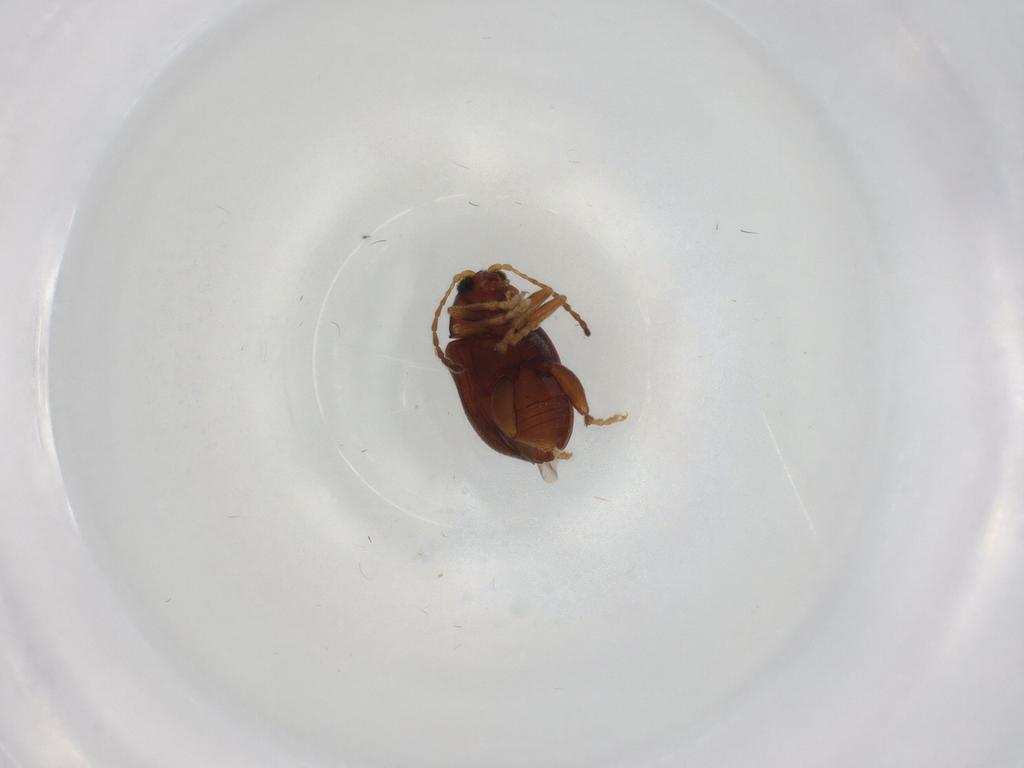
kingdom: Animalia
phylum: Arthropoda
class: Insecta
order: Coleoptera
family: Chrysomelidae
